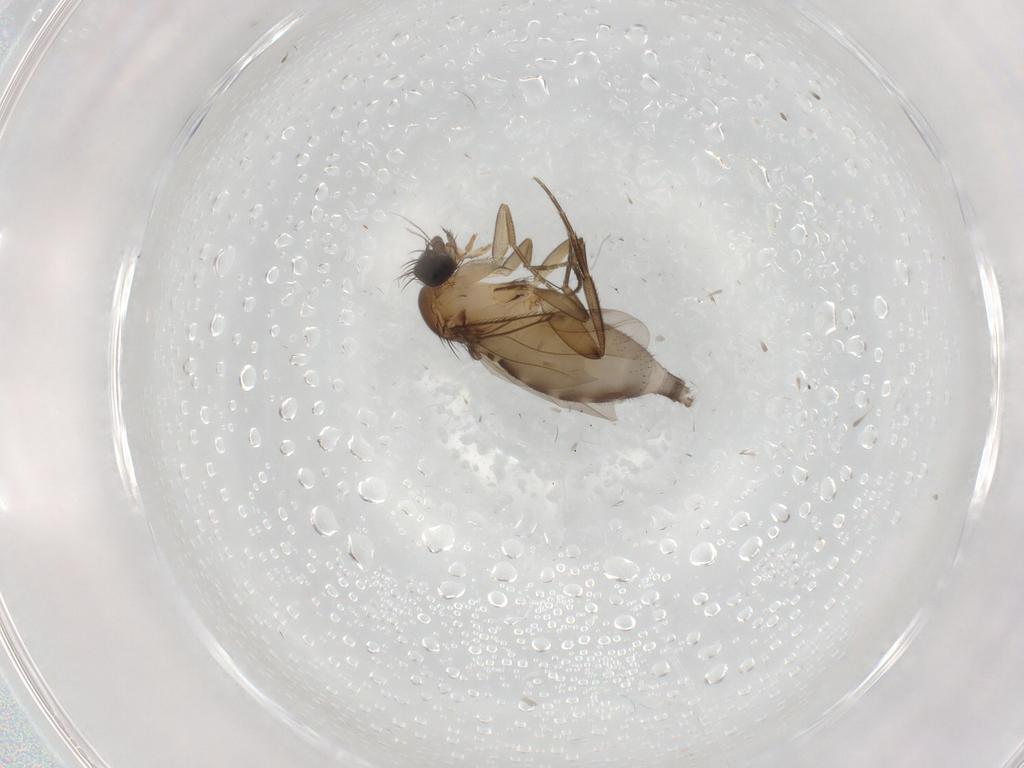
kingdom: Animalia
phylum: Arthropoda
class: Insecta
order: Diptera
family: Phoridae
